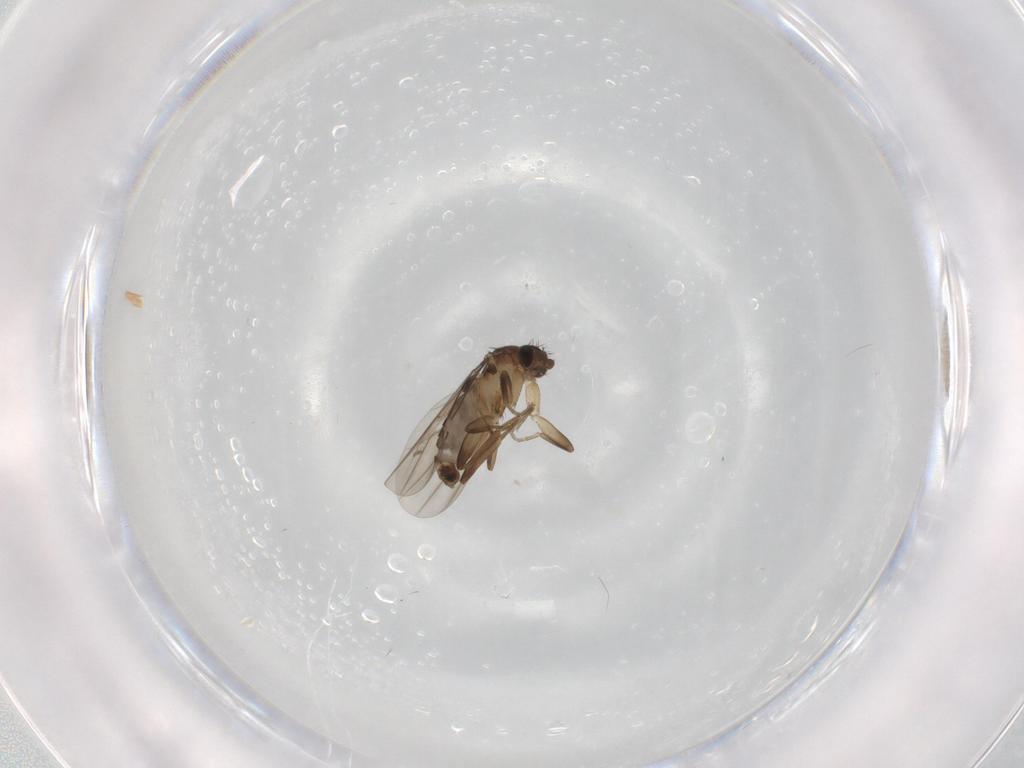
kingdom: Animalia
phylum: Arthropoda
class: Insecta
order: Diptera
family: Phoridae
